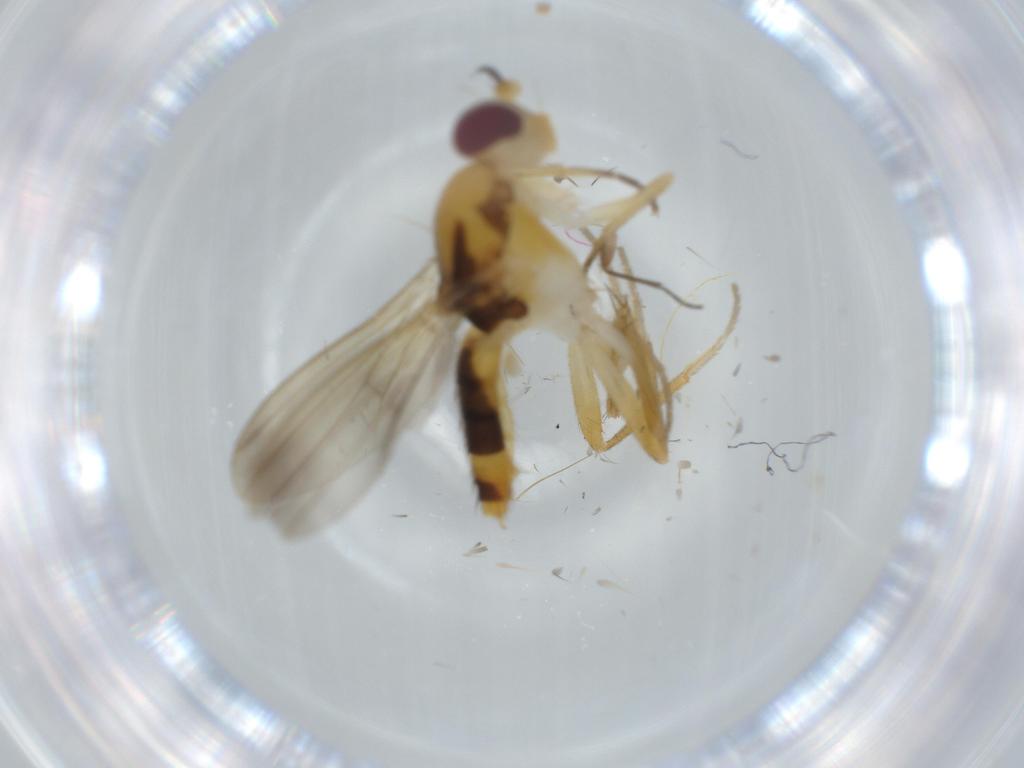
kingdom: Animalia
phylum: Arthropoda
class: Insecta
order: Diptera
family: Clusiidae
